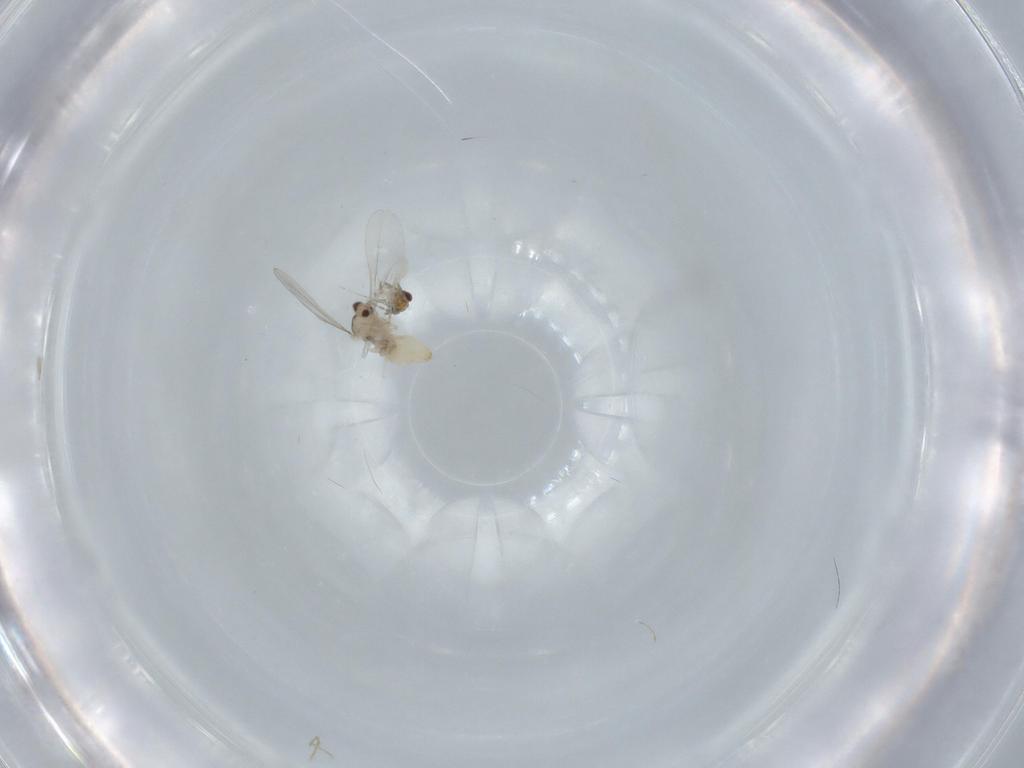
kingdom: Animalia
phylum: Arthropoda
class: Insecta
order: Diptera
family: Cecidomyiidae
